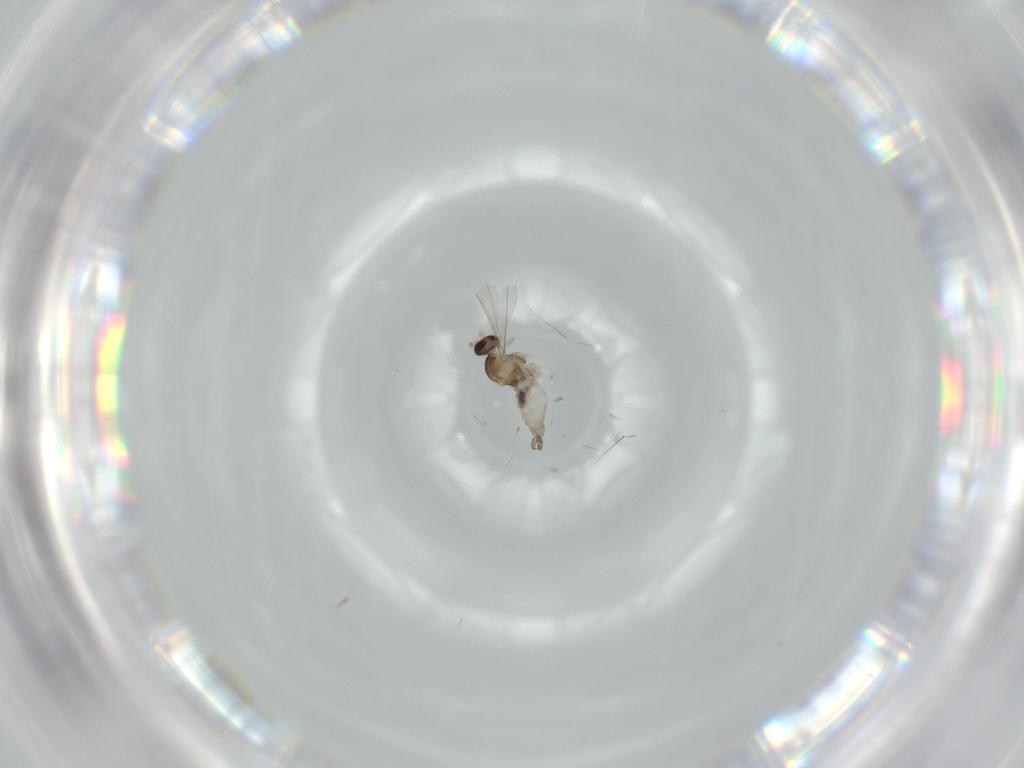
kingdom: Animalia
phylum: Arthropoda
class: Insecta
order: Diptera
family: Cecidomyiidae
